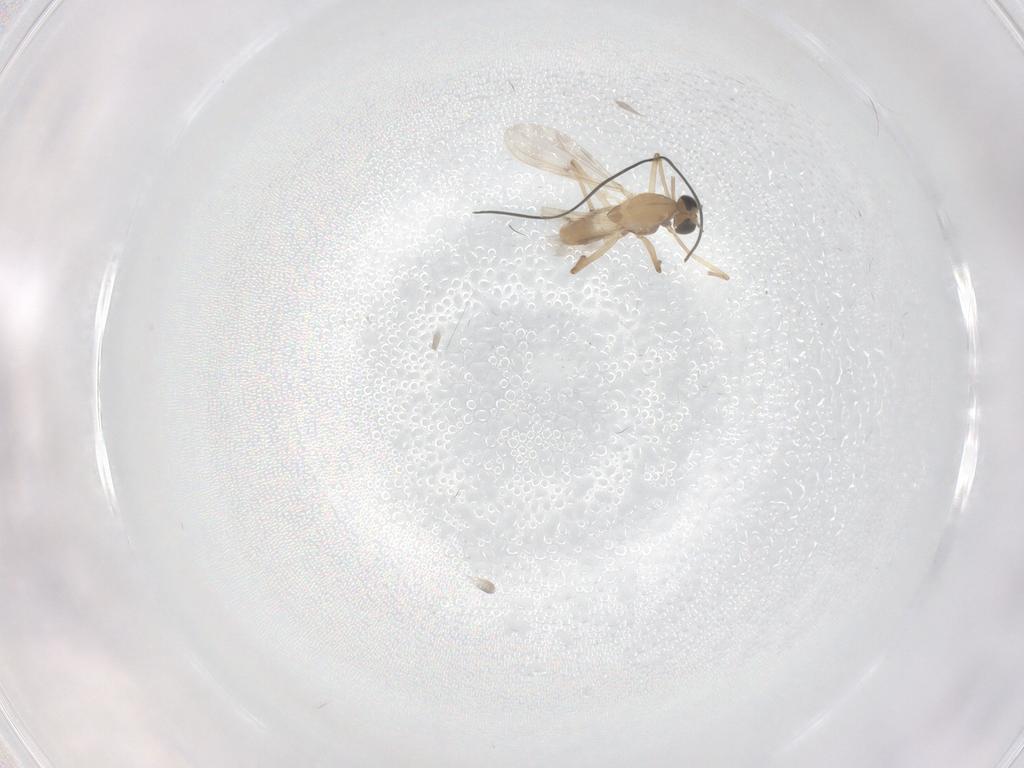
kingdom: Animalia
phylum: Arthropoda
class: Insecta
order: Diptera
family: Chironomidae
